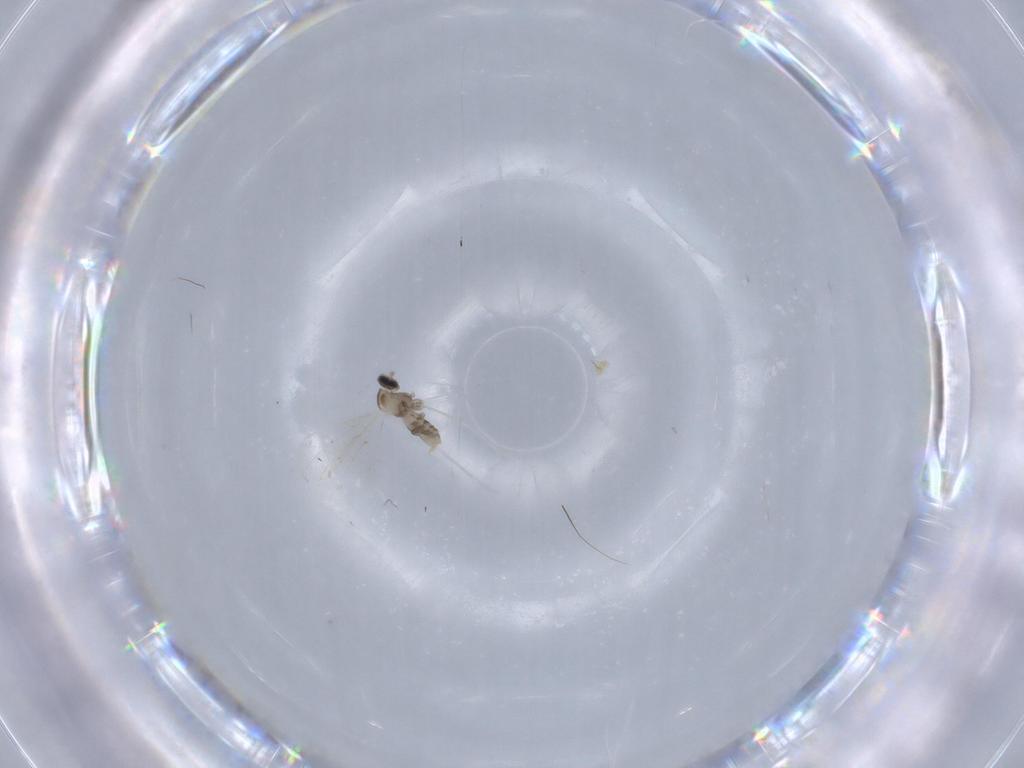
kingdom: Animalia
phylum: Arthropoda
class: Insecta
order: Diptera
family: Cecidomyiidae
